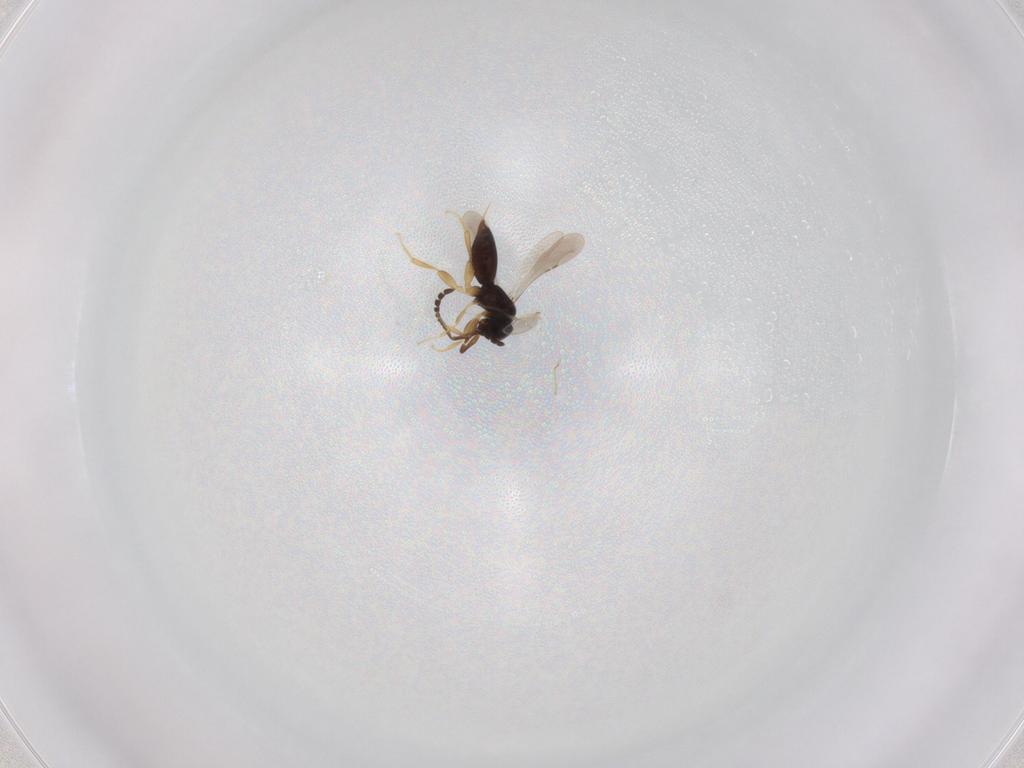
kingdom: Animalia
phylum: Arthropoda
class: Insecta
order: Hymenoptera
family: Ceraphronidae
